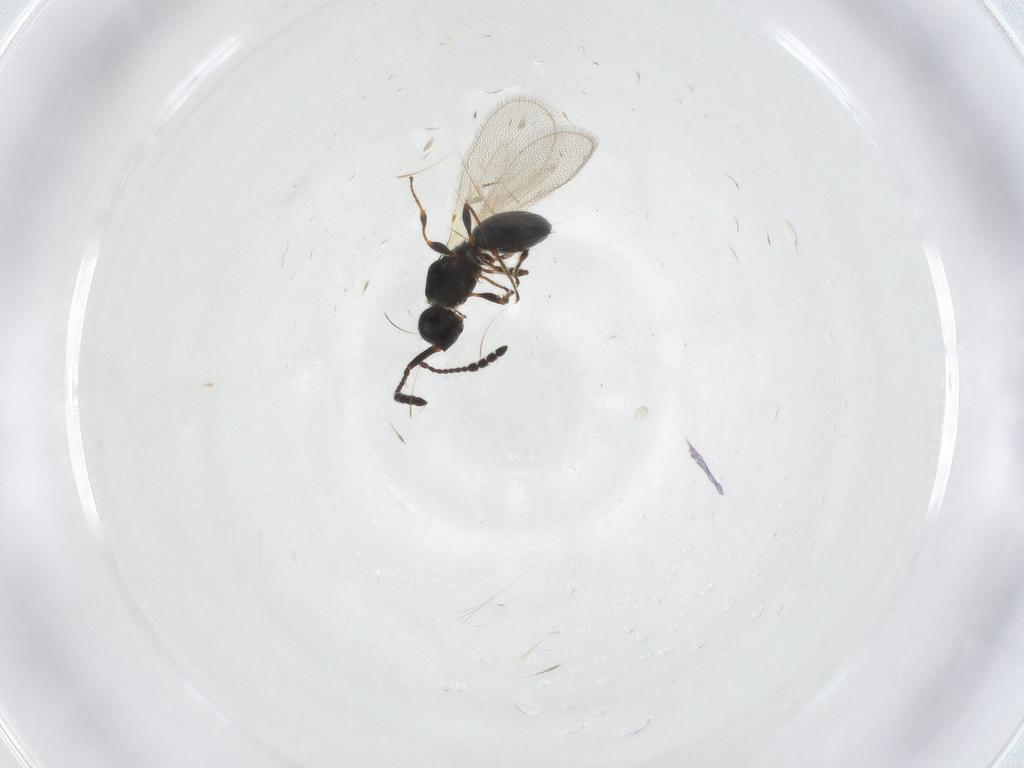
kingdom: Animalia
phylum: Arthropoda
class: Insecta
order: Hymenoptera
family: Diapriidae
